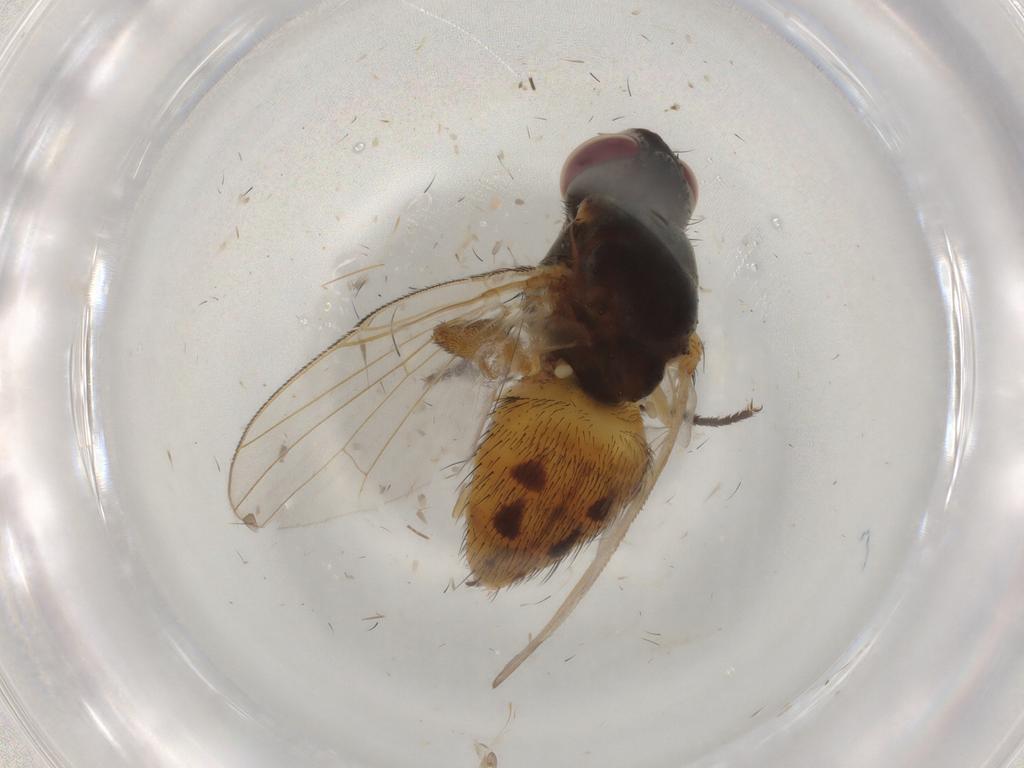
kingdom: Animalia
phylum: Arthropoda
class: Insecta
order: Diptera
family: Muscidae
